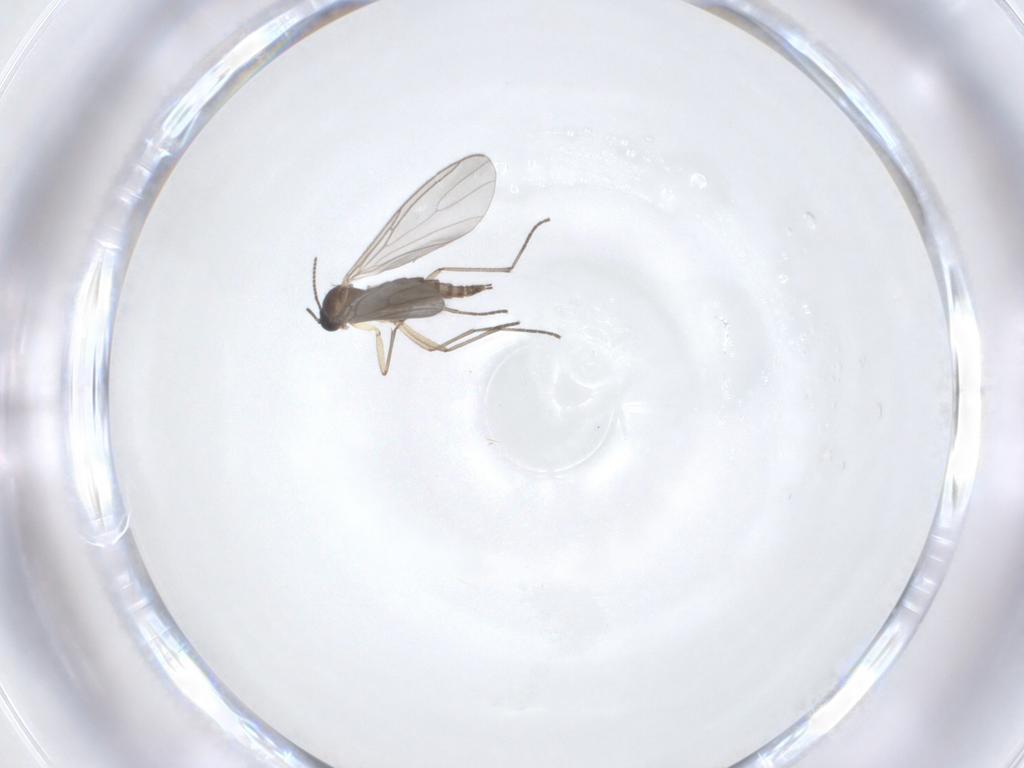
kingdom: Animalia
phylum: Arthropoda
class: Insecta
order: Diptera
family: Sciaridae
